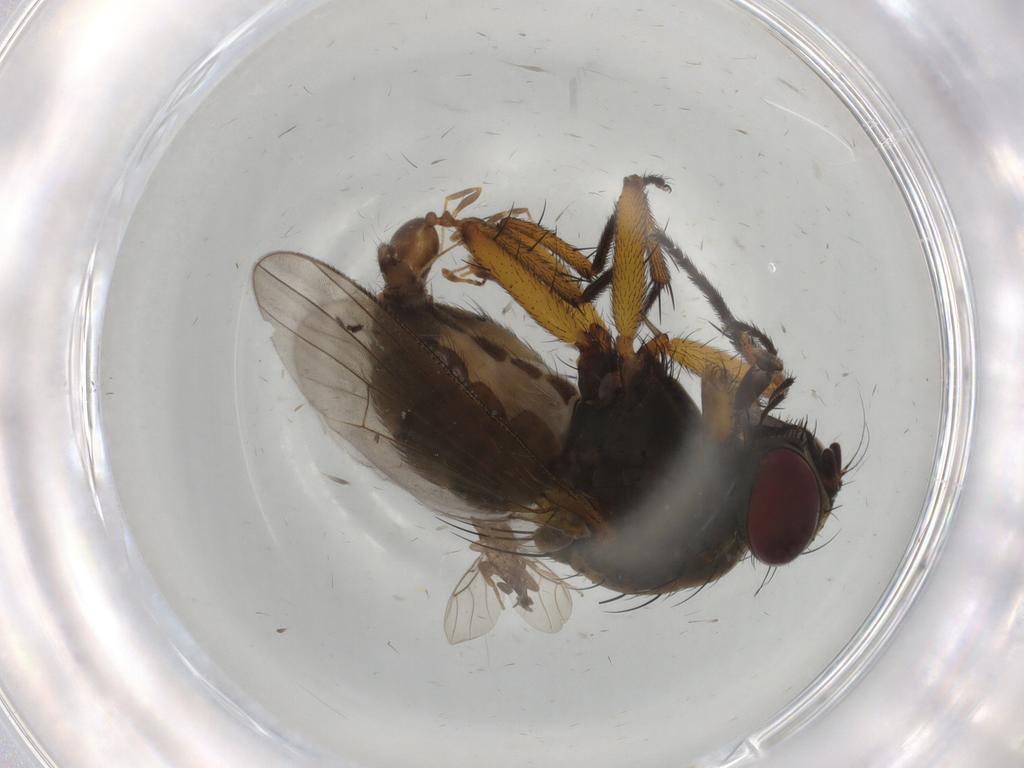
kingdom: Animalia
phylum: Arthropoda
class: Insecta
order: Diptera
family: Muscidae
